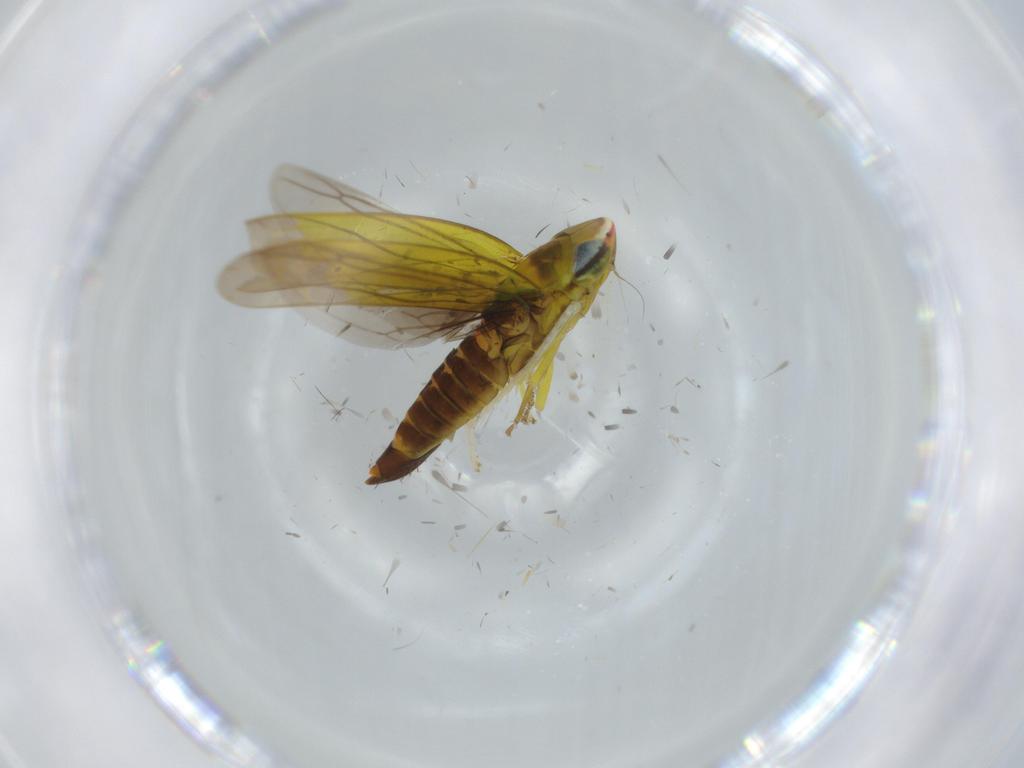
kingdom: Animalia
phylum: Arthropoda
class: Insecta
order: Hemiptera
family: Cicadellidae
